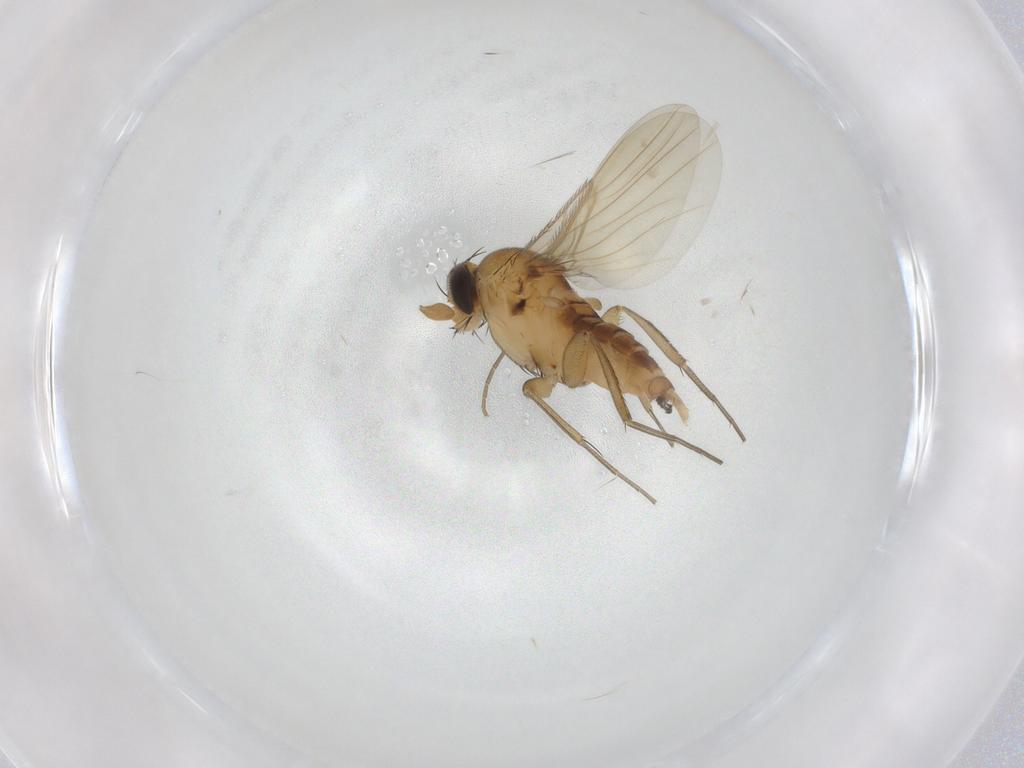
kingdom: Animalia
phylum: Arthropoda
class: Insecta
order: Diptera
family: Phoridae
